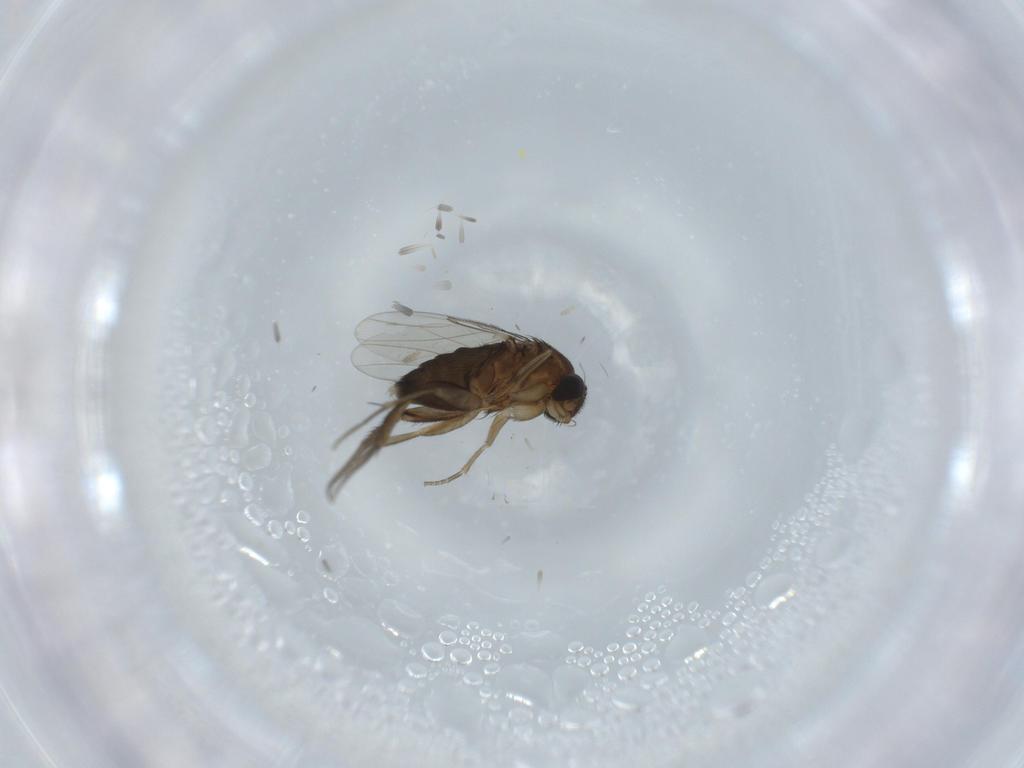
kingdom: Animalia
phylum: Arthropoda
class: Insecta
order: Diptera
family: Phoridae
